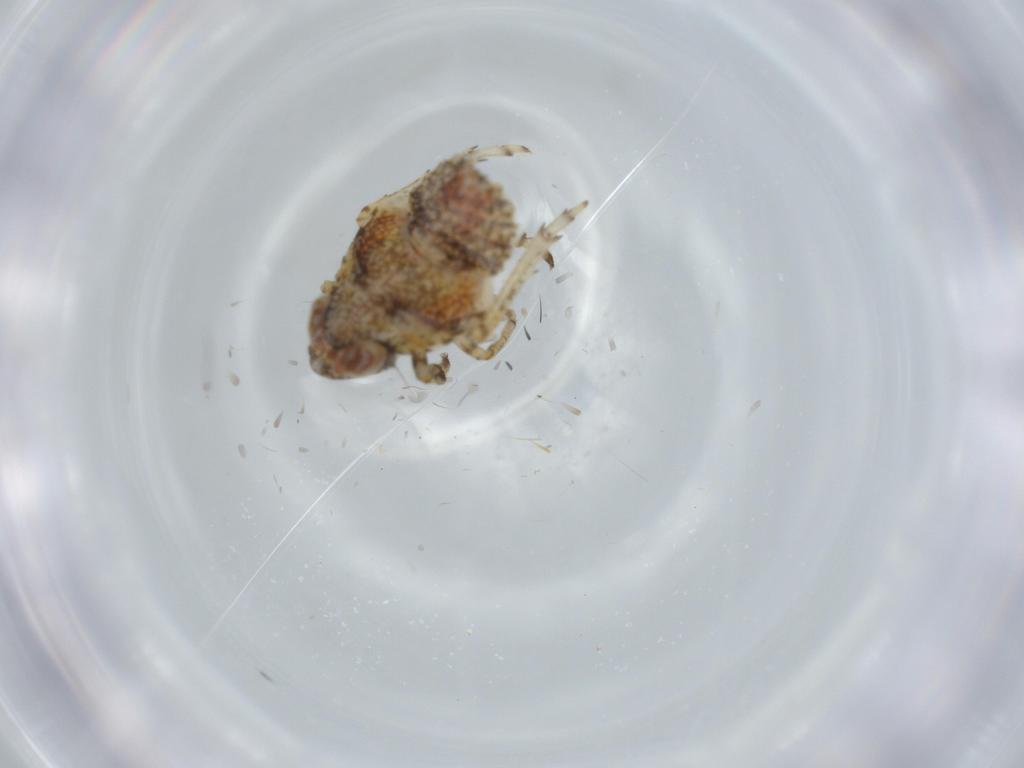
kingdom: Animalia
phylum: Arthropoda
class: Insecta
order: Hemiptera
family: Issidae
